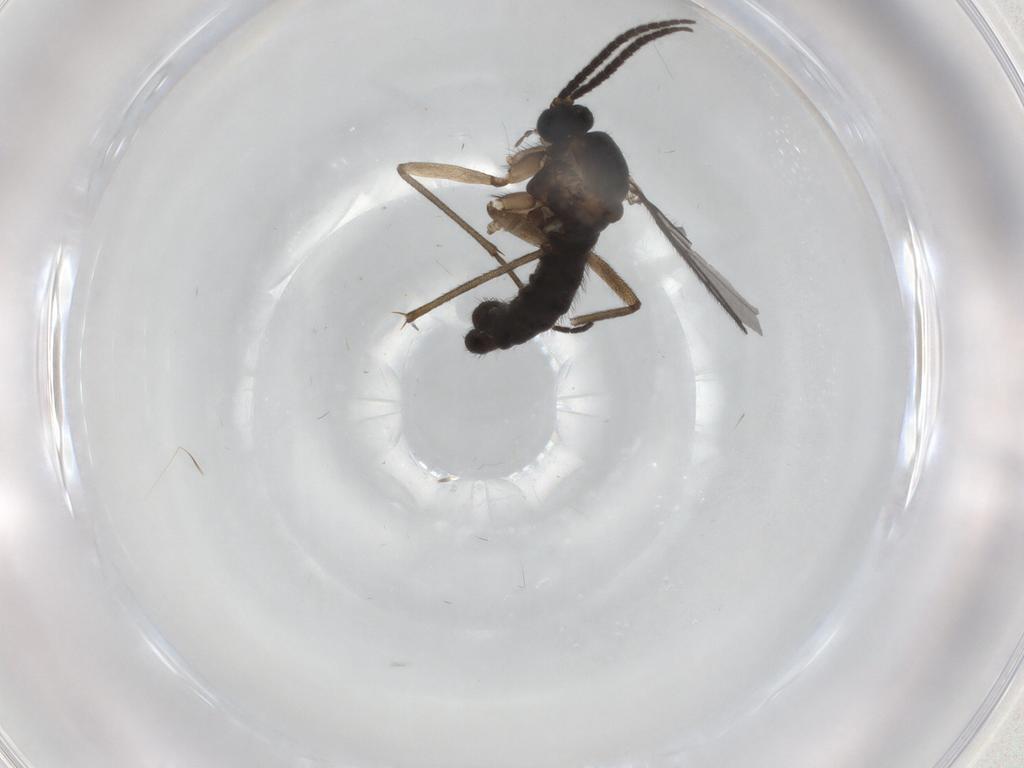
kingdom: Animalia
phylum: Arthropoda
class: Insecta
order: Diptera
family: Sciaridae
